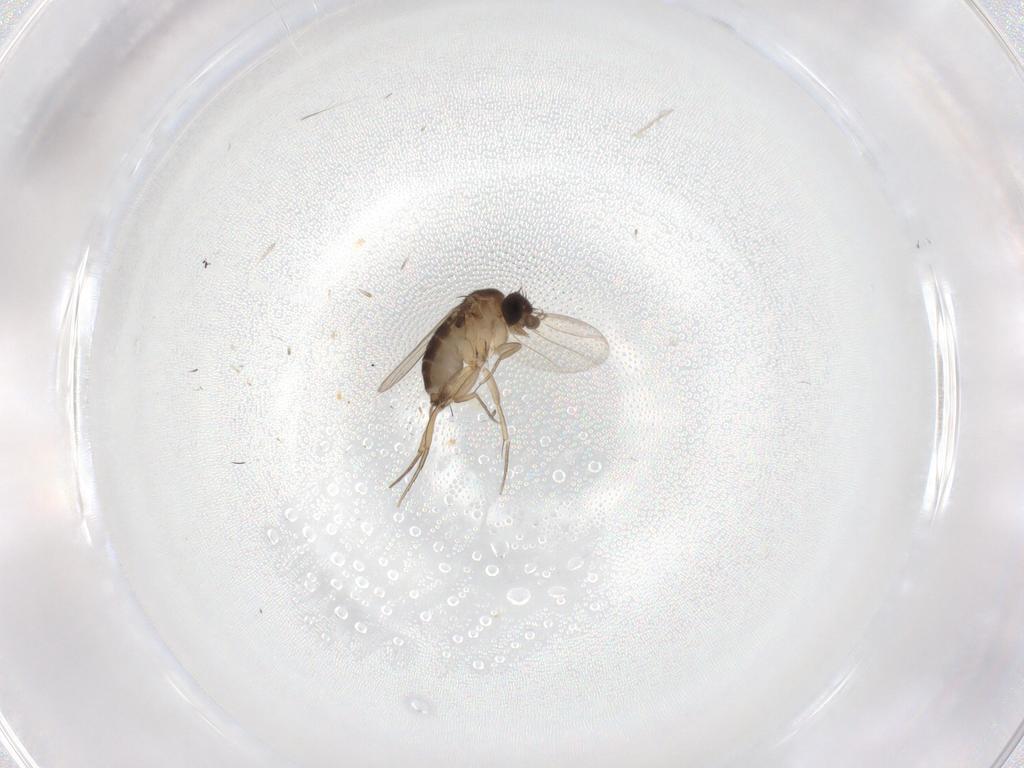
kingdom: Animalia
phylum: Arthropoda
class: Insecta
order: Diptera
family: Phoridae
